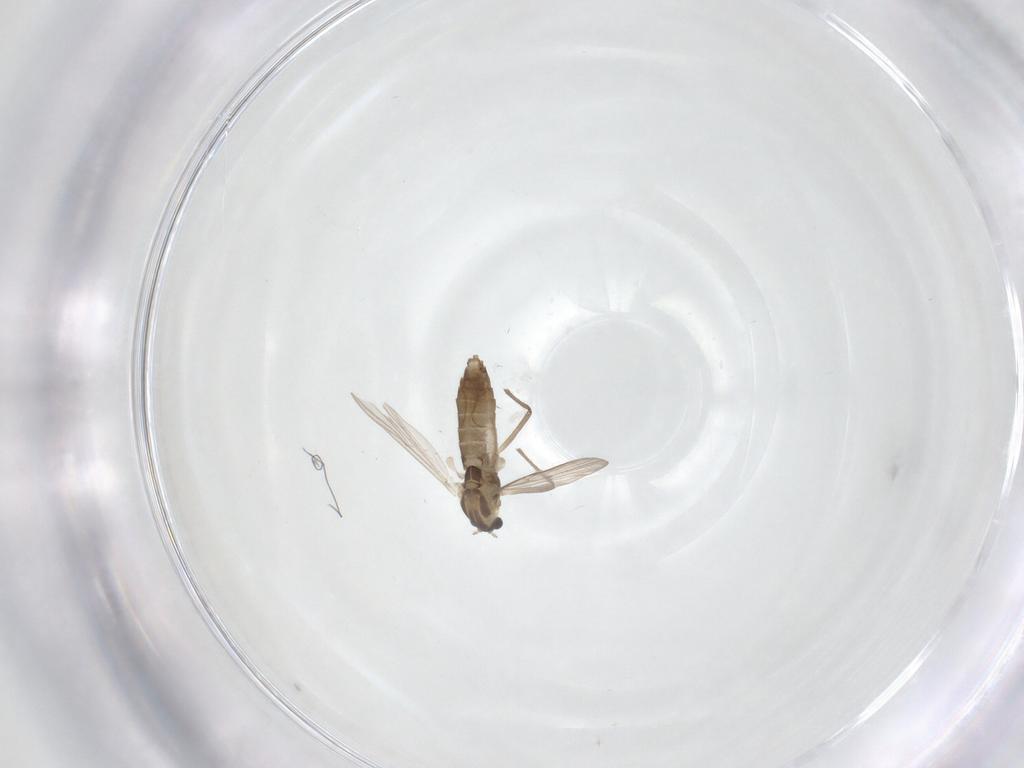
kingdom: Animalia
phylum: Arthropoda
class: Insecta
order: Diptera
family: Chironomidae
